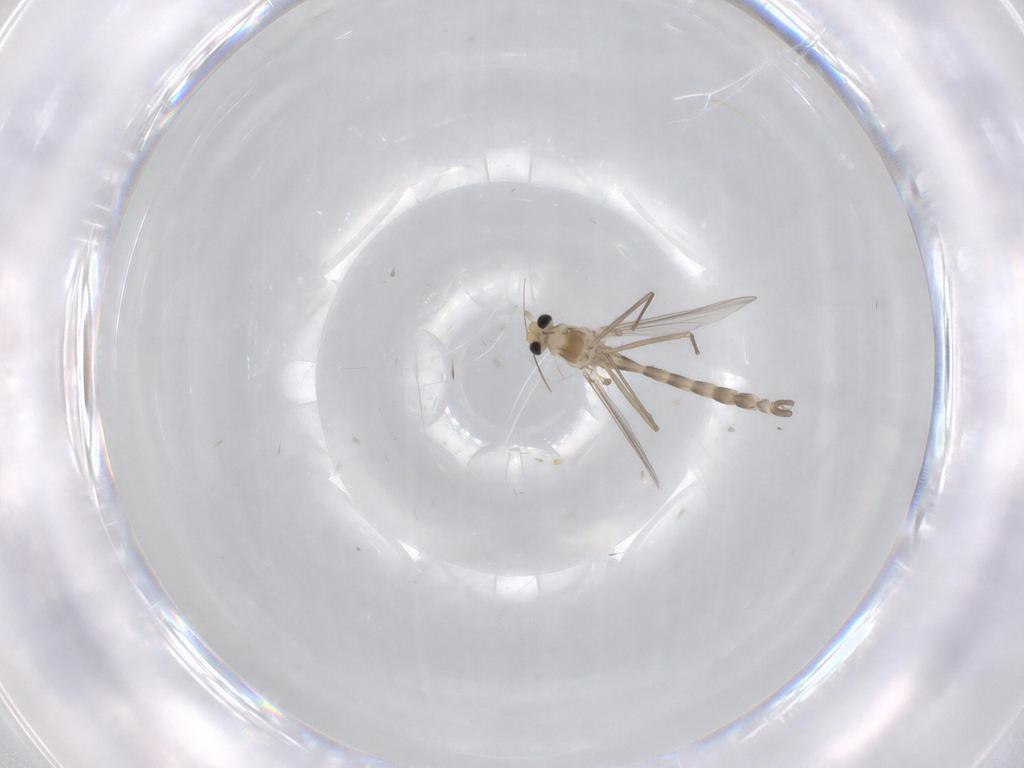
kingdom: Animalia
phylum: Arthropoda
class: Insecta
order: Diptera
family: Chironomidae
